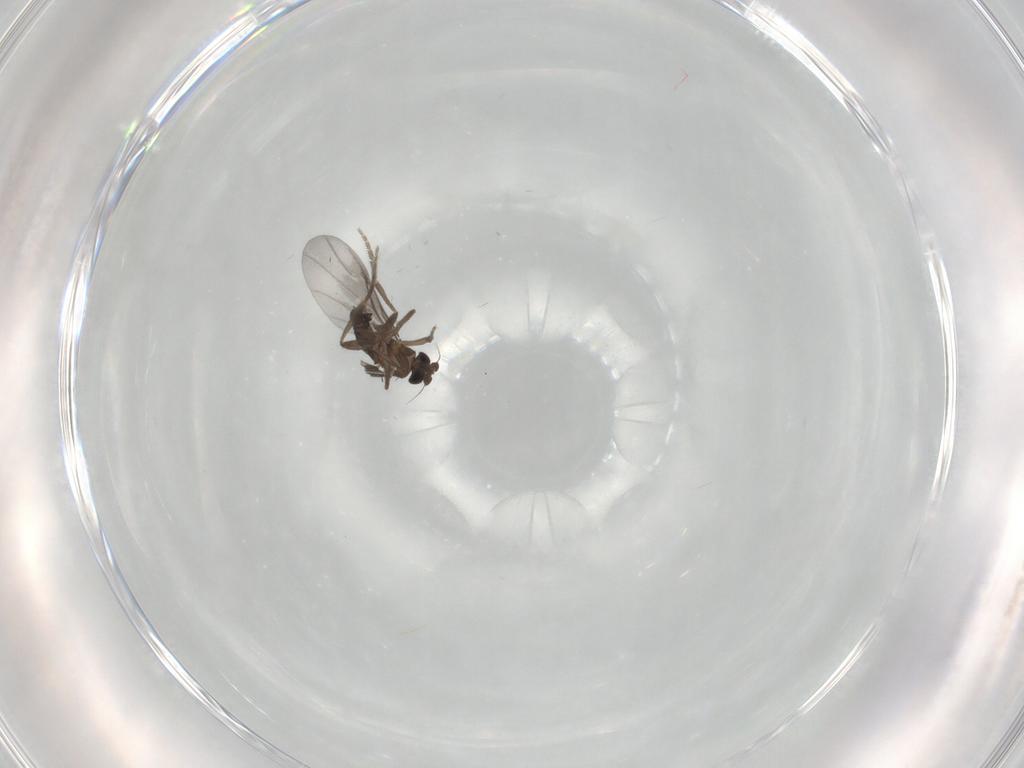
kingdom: Animalia
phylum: Arthropoda
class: Insecta
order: Diptera
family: Phoridae
